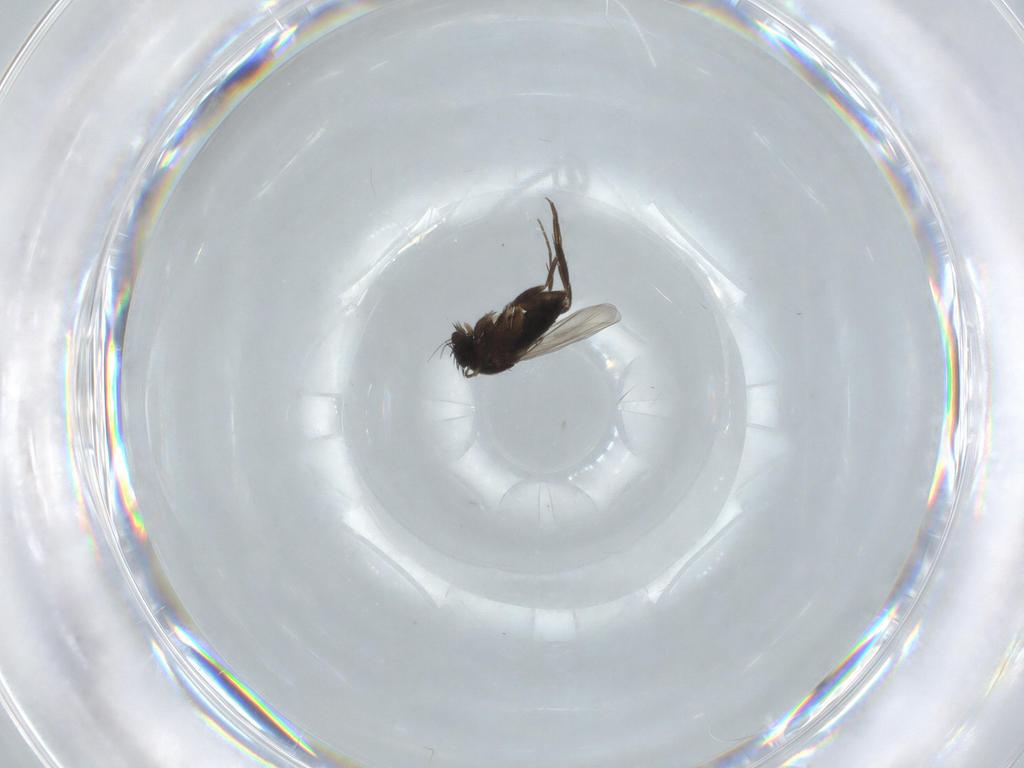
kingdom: Animalia
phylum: Arthropoda
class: Insecta
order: Diptera
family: Phoridae
